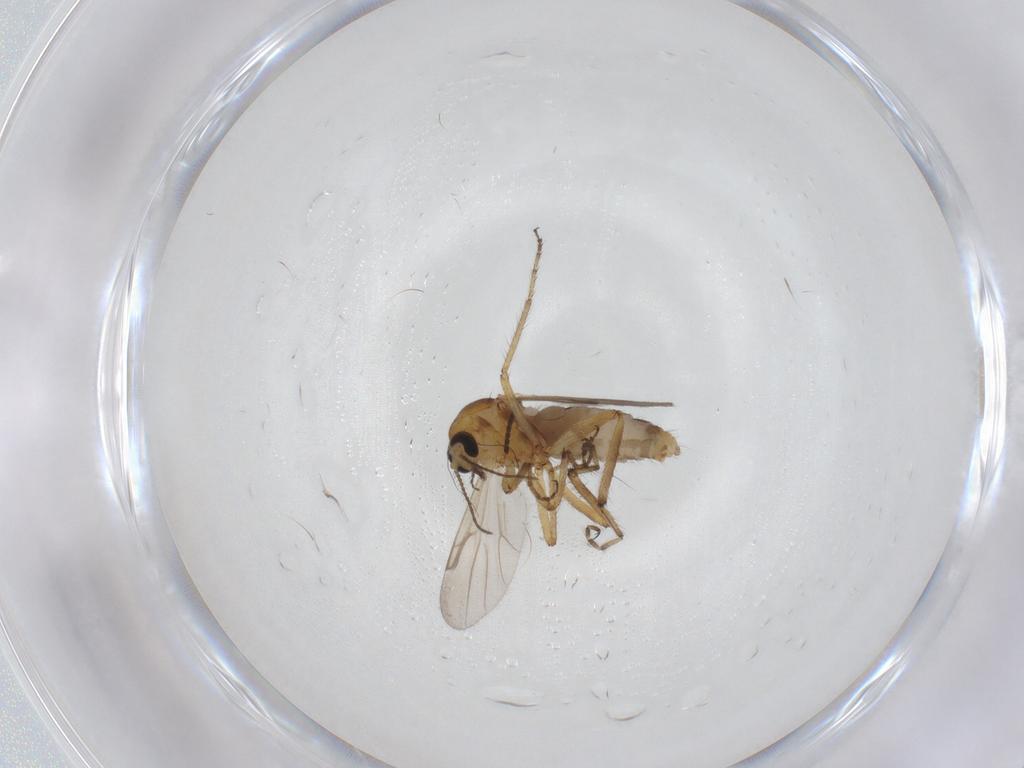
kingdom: Animalia
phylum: Arthropoda
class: Insecta
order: Diptera
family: Ceratopogonidae
